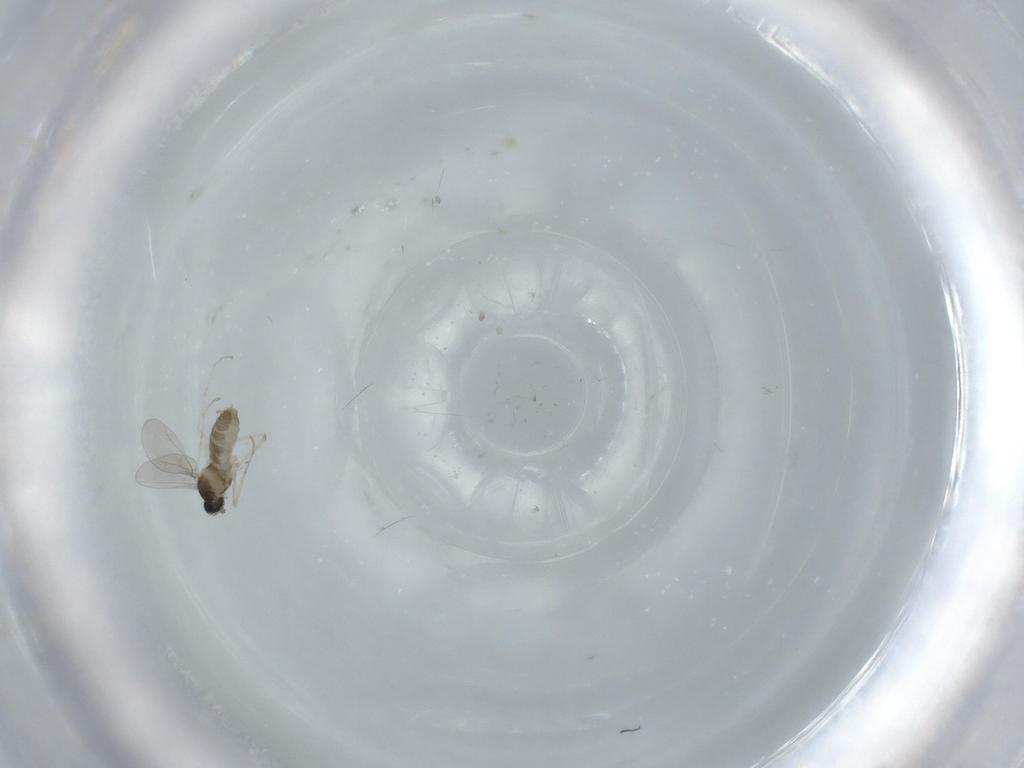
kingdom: Animalia
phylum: Arthropoda
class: Insecta
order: Diptera
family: Cecidomyiidae
